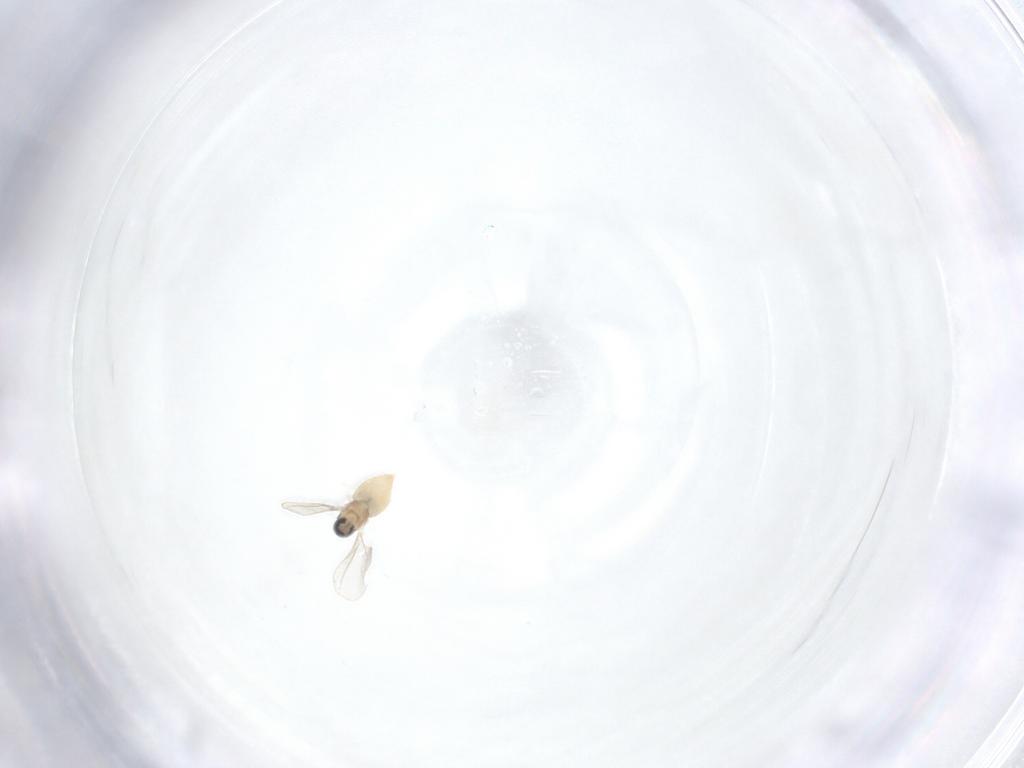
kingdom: Animalia
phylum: Arthropoda
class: Insecta
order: Diptera
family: Cecidomyiidae
